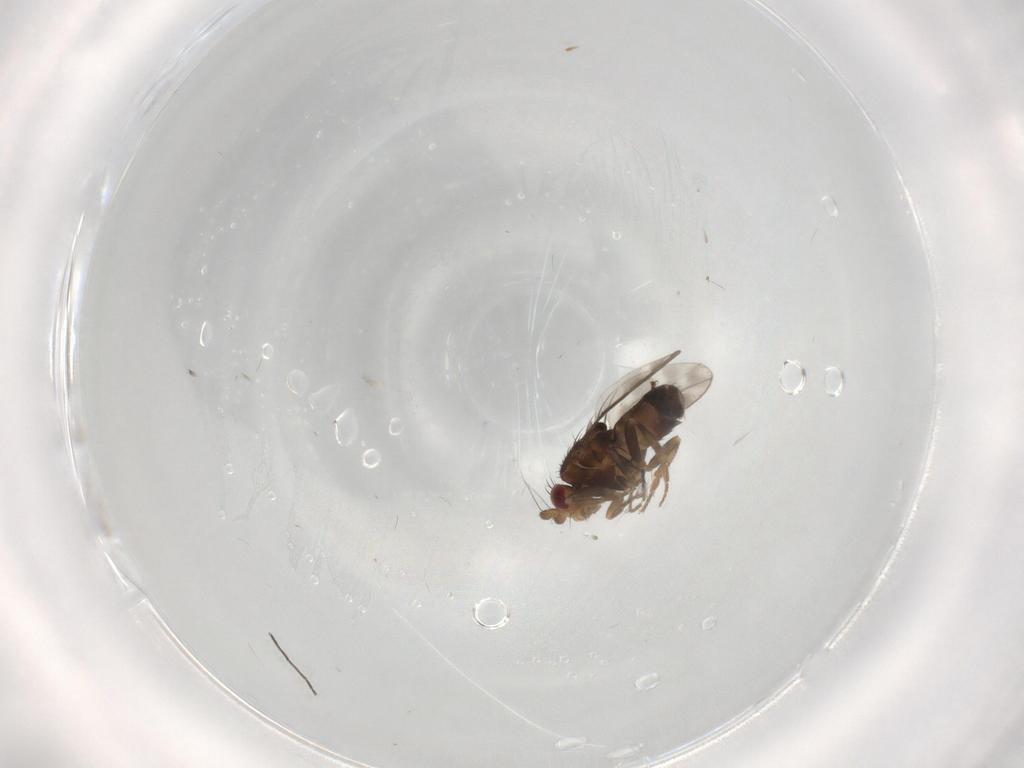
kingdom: Animalia
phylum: Arthropoda
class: Insecta
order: Diptera
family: Sphaeroceridae
